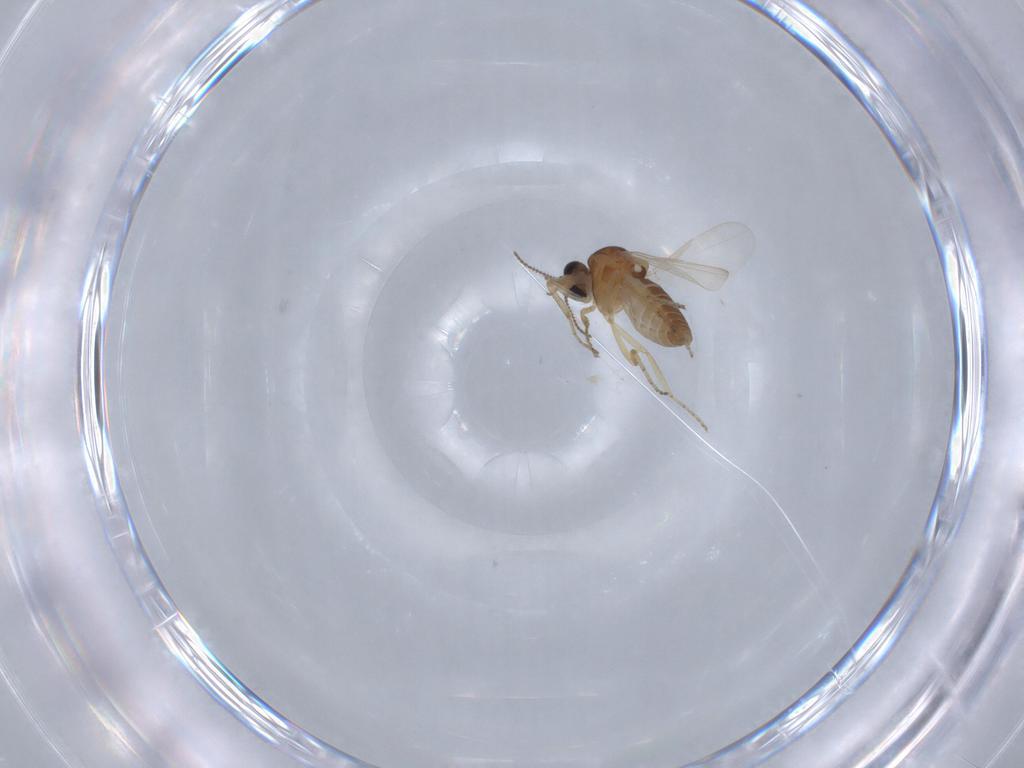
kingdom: Animalia
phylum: Arthropoda
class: Insecta
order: Diptera
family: Ceratopogonidae
